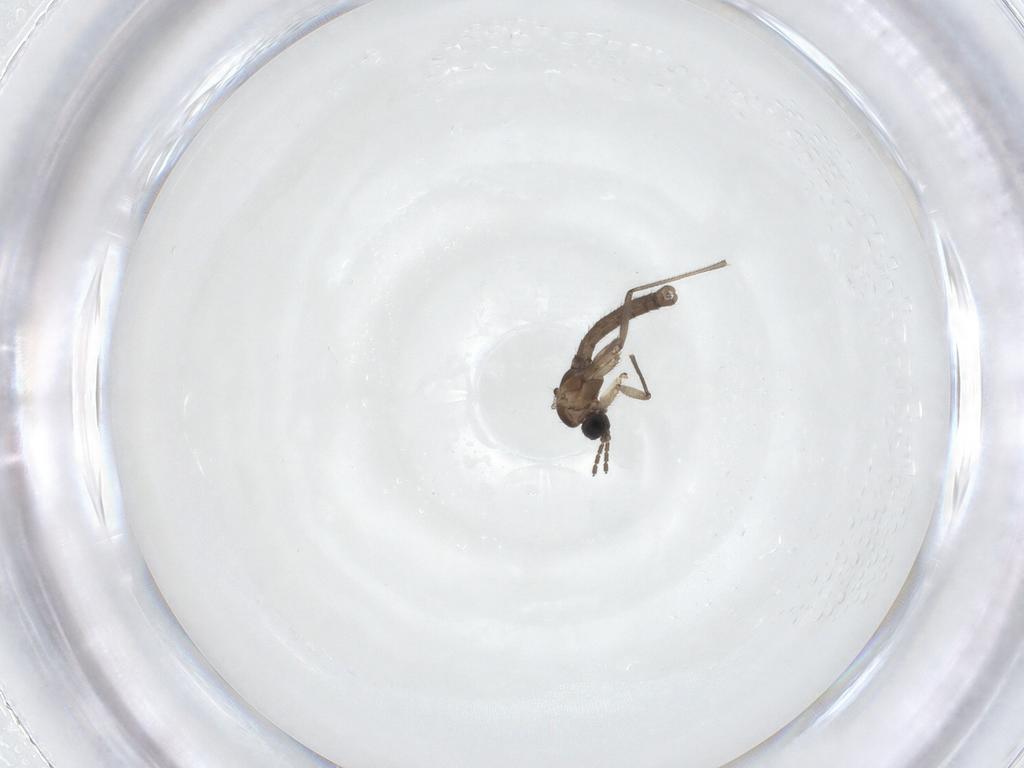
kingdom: Animalia
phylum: Arthropoda
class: Insecta
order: Diptera
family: Sciaridae
